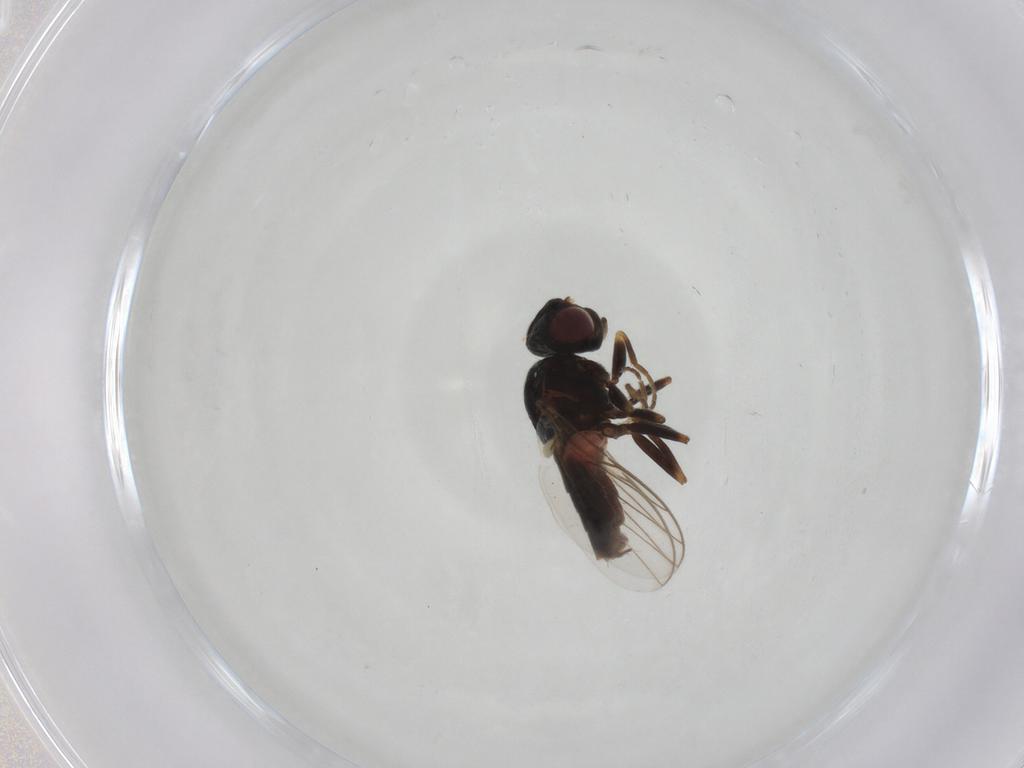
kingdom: Animalia
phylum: Arthropoda
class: Insecta
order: Diptera
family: Chloropidae
